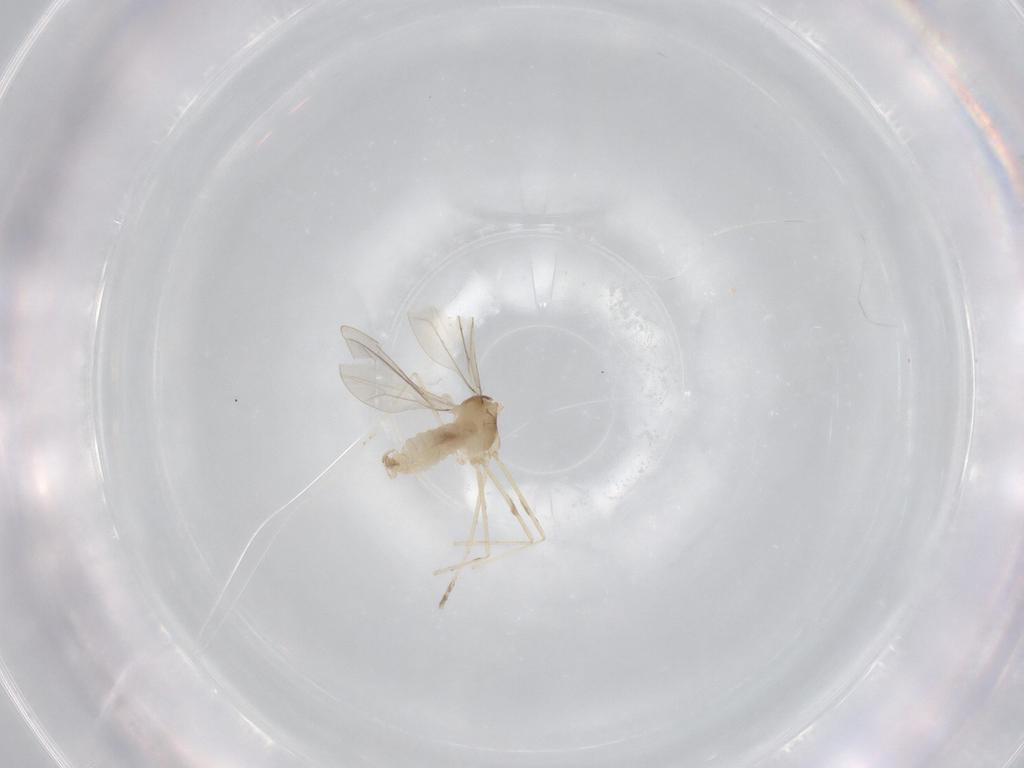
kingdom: Animalia
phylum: Arthropoda
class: Insecta
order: Diptera
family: Cecidomyiidae
